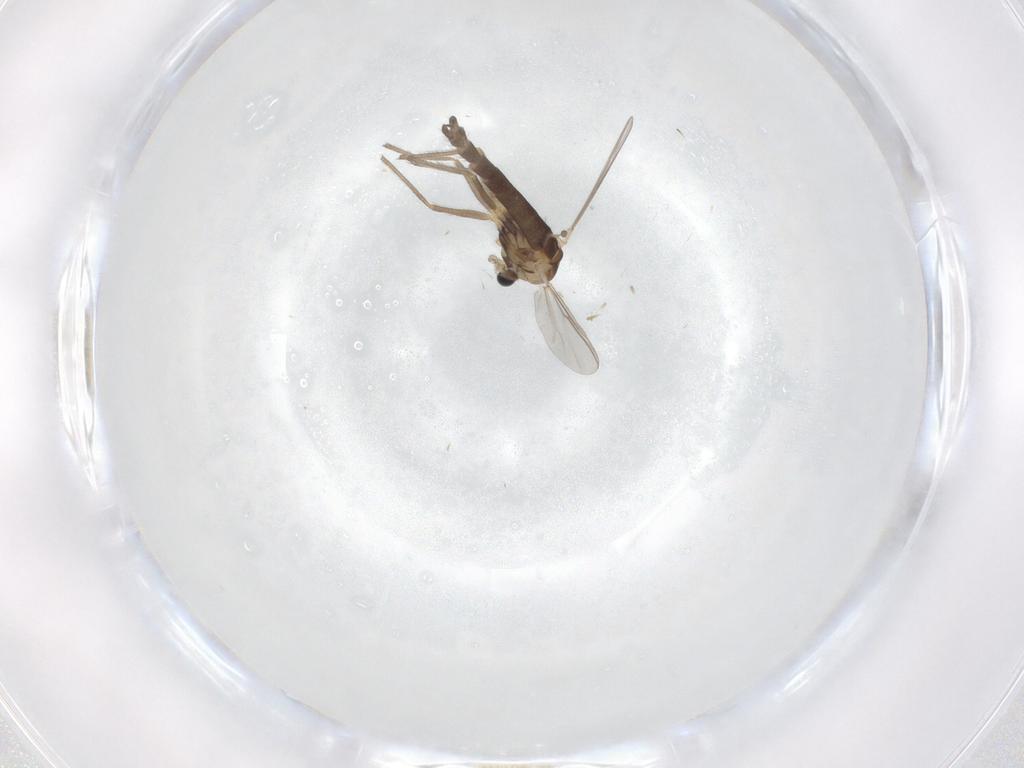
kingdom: Animalia
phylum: Arthropoda
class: Insecta
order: Diptera
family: Chironomidae
